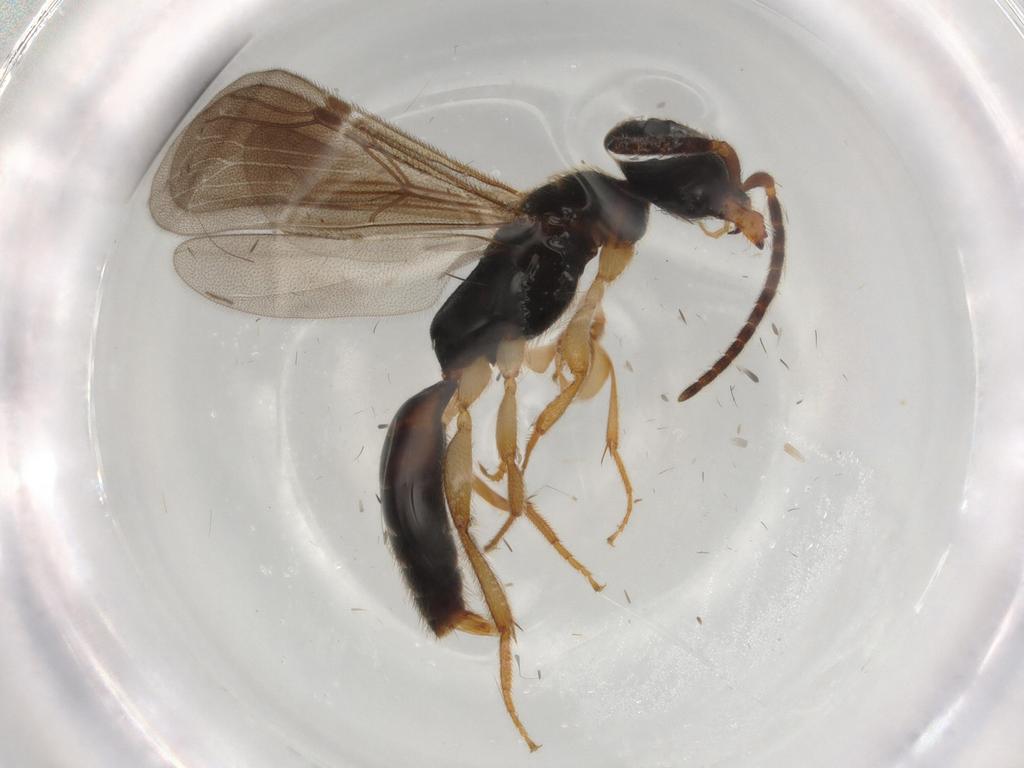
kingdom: Animalia
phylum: Arthropoda
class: Insecta
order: Hymenoptera
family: Bethylidae
